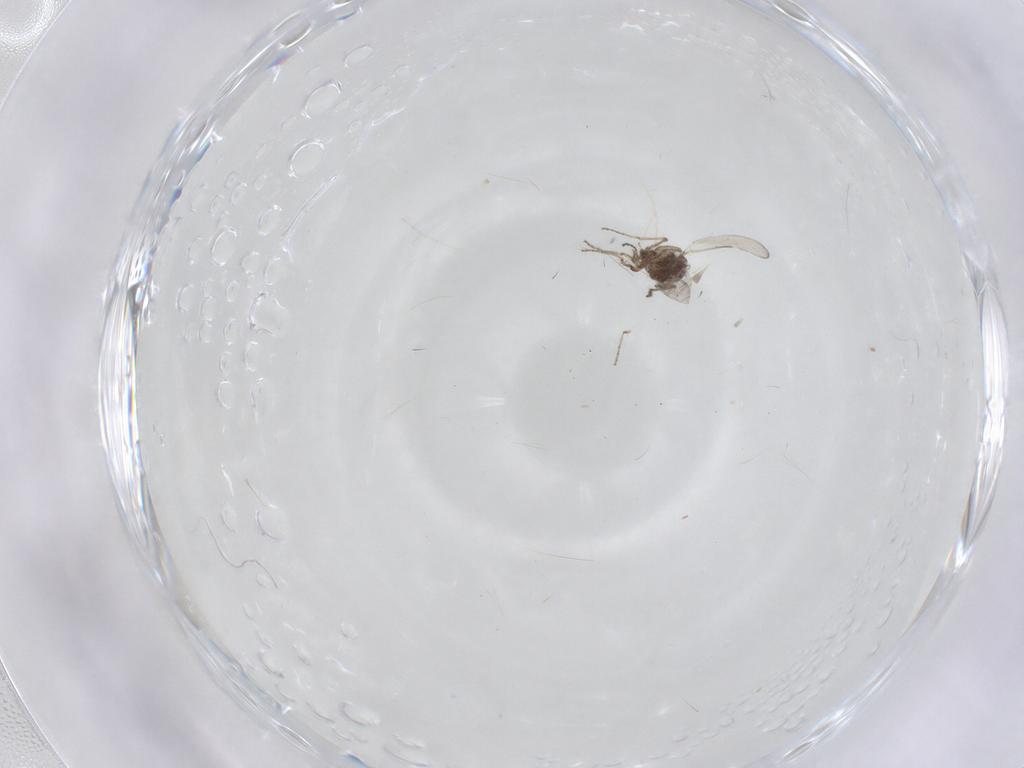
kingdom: Animalia
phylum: Arthropoda
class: Insecta
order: Diptera
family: Ceratopogonidae
